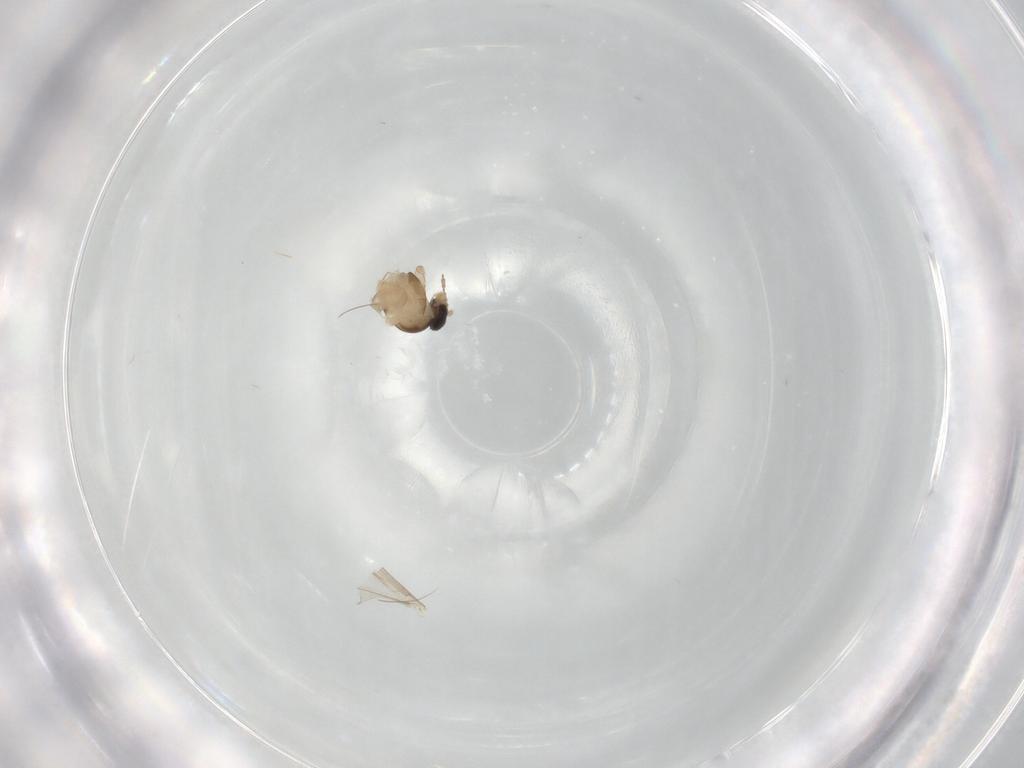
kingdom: Animalia
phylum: Arthropoda
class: Insecta
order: Diptera
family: Cecidomyiidae
